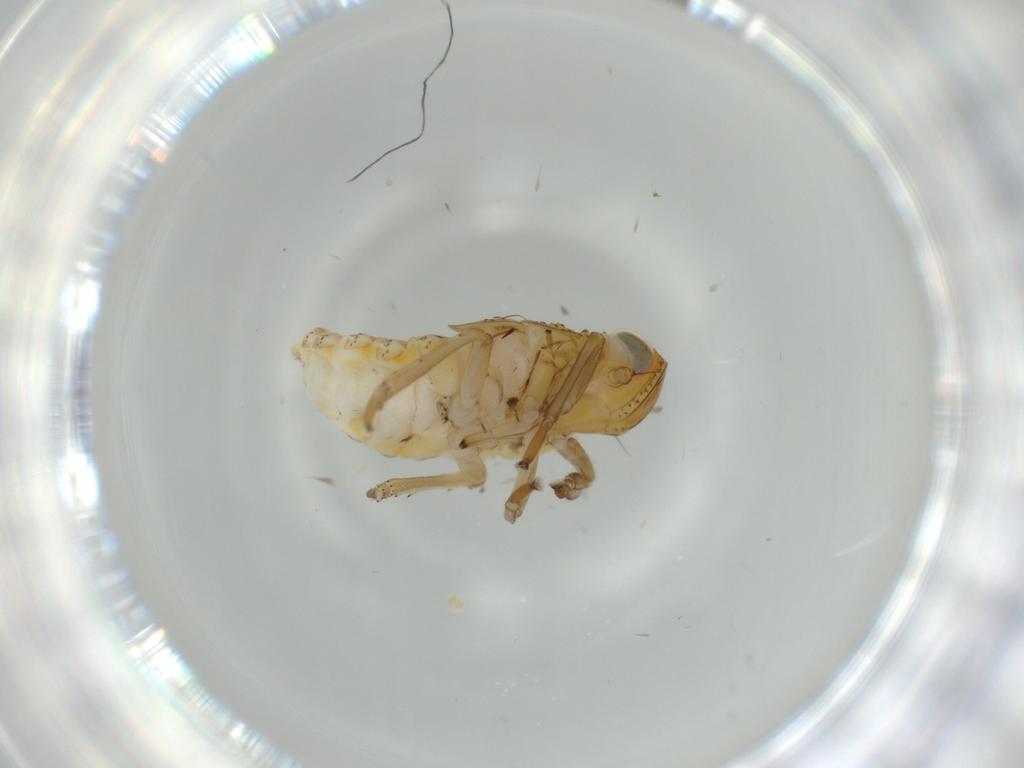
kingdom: Animalia
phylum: Arthropoda
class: Insecta
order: Hemiptera
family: Issidae
